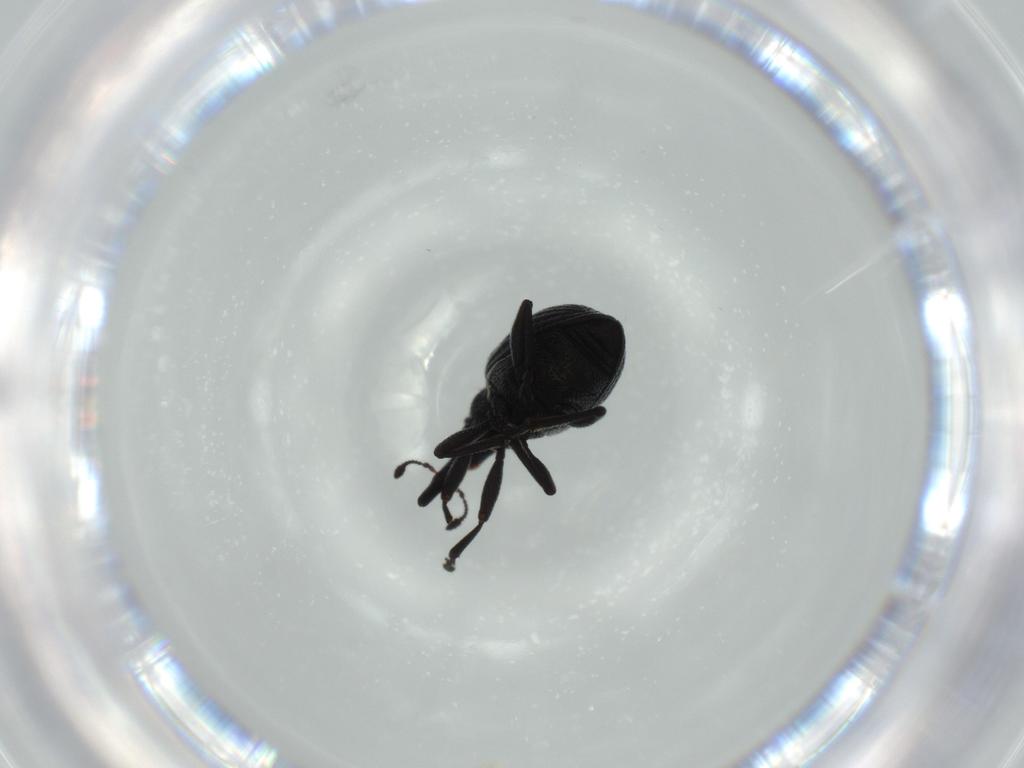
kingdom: Animalia
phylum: Arthropoda
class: Insecta
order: Coleoptera
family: Brentidae
